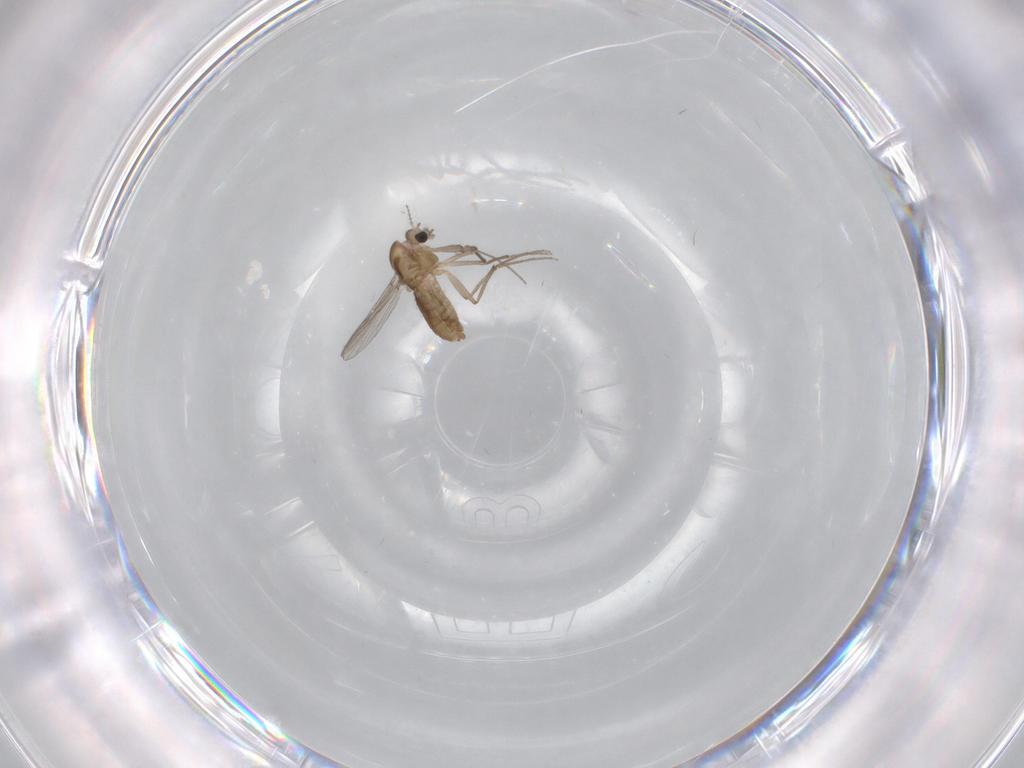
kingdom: Animalia
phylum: Arthropoda
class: Insecta
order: Diptera
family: Chironomidae
